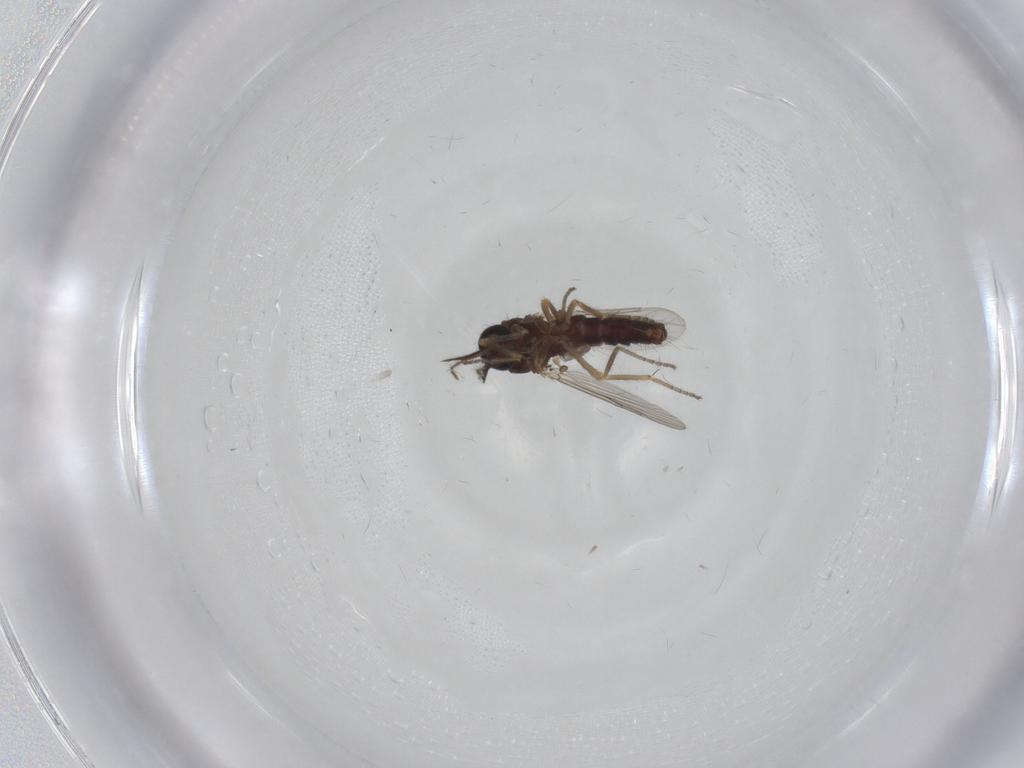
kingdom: Animalia
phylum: Arthropoda
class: Insecta
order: Diptera
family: Ceratopogonidae
